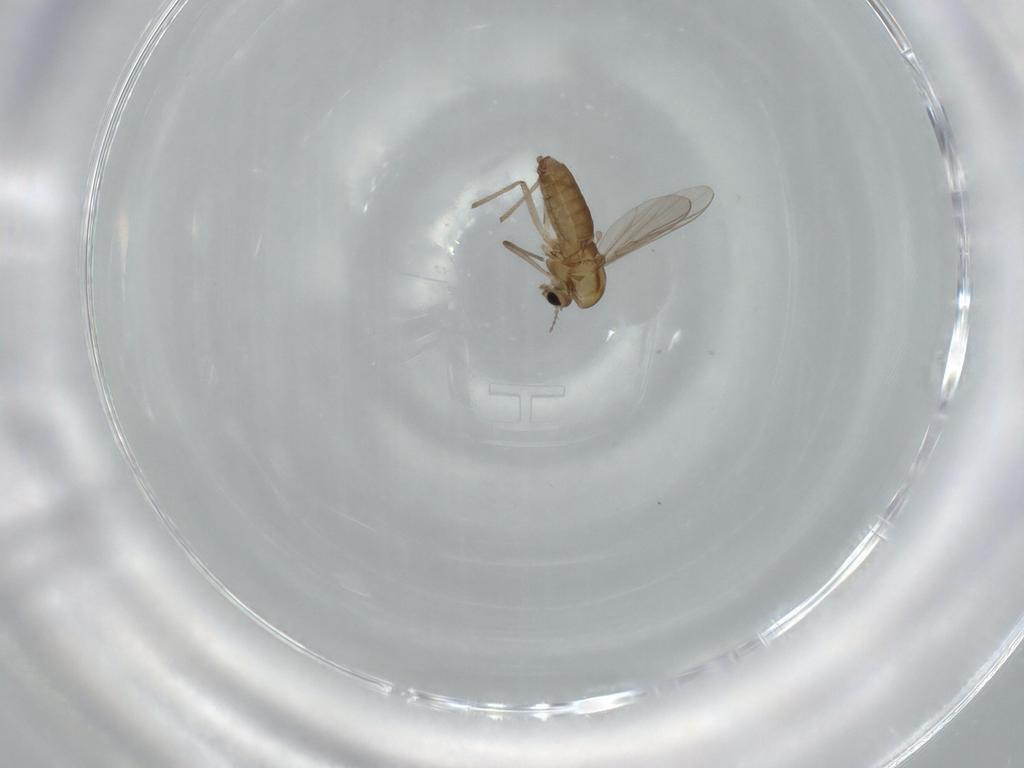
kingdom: Animalia
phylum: Arthropoda
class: Insecta
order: Diptera
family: Chironomidae
